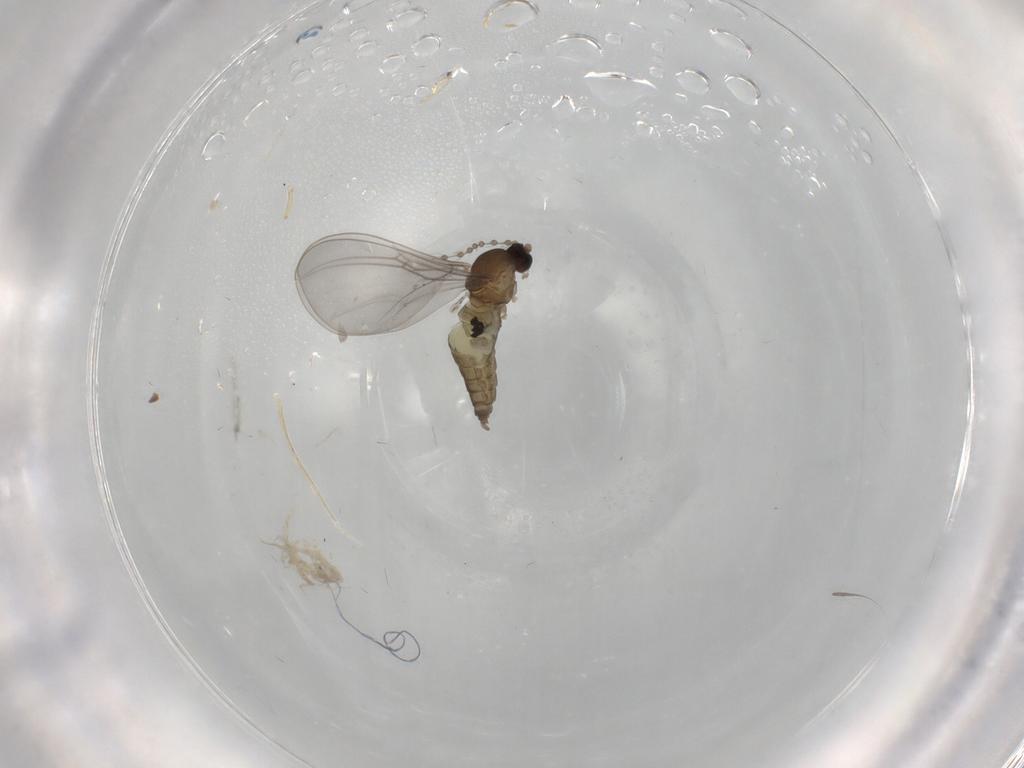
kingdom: Animalia
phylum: Arthropoda
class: Insecta
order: Diptera
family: Cecidomyiidae
